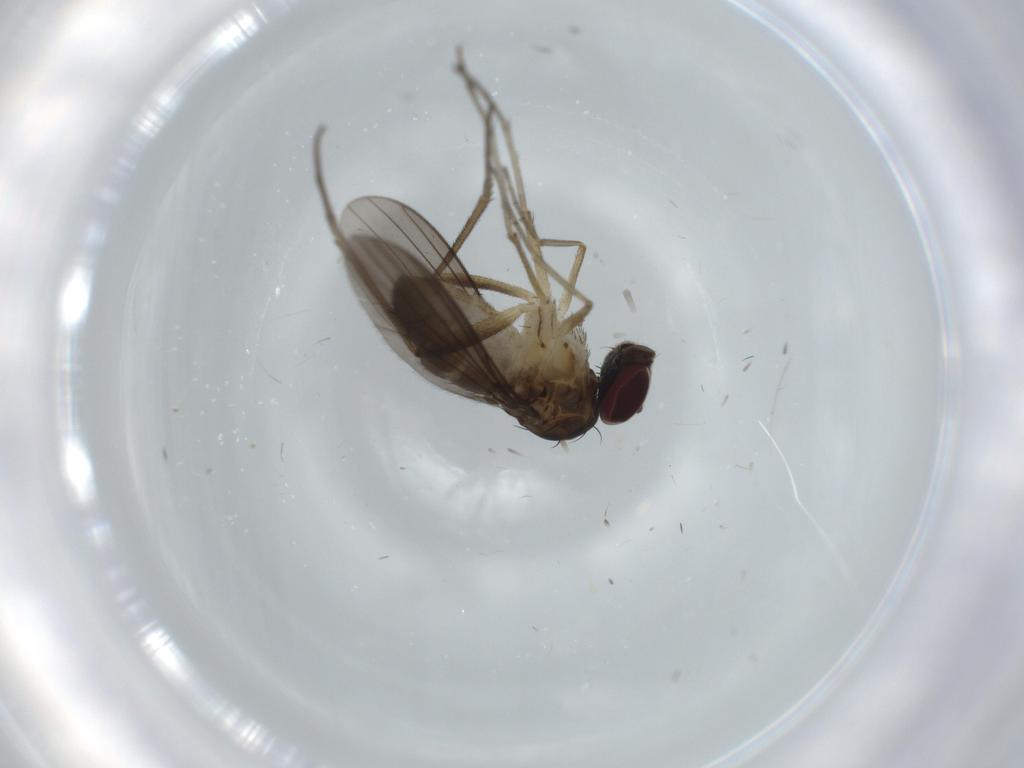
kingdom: Animalia
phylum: Arthropoda
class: Insecta
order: Diptera
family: Dolichopodidae
